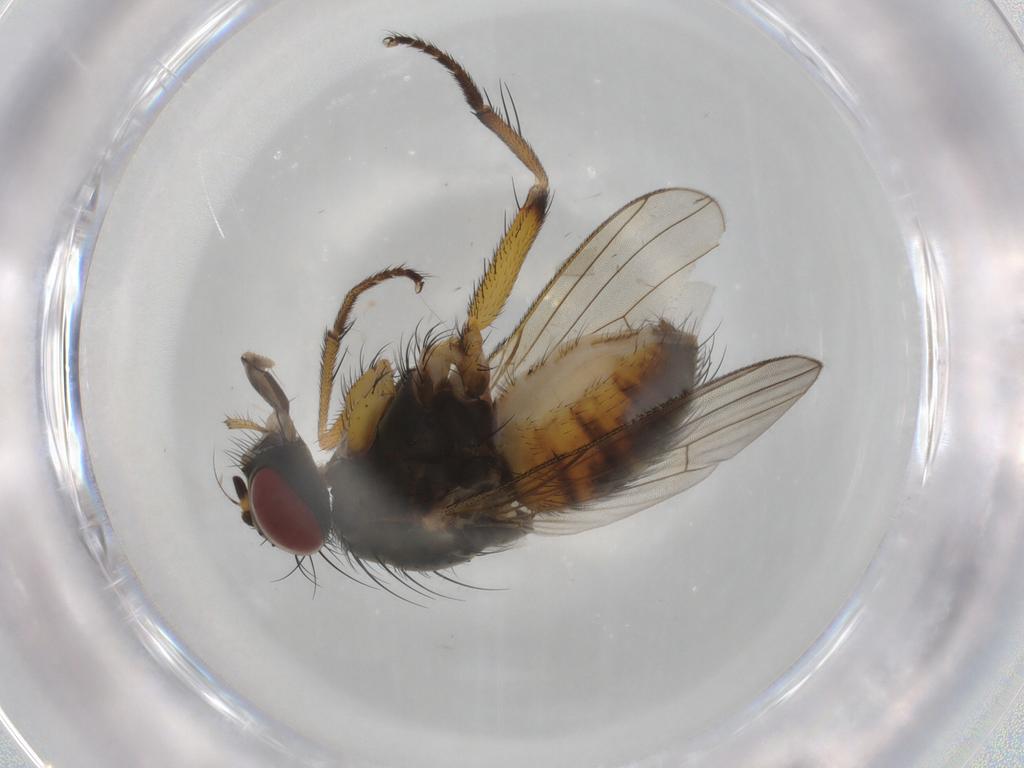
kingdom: Animalia
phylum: Arthropoda
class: Insecta
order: Diptera
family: Muscidae
